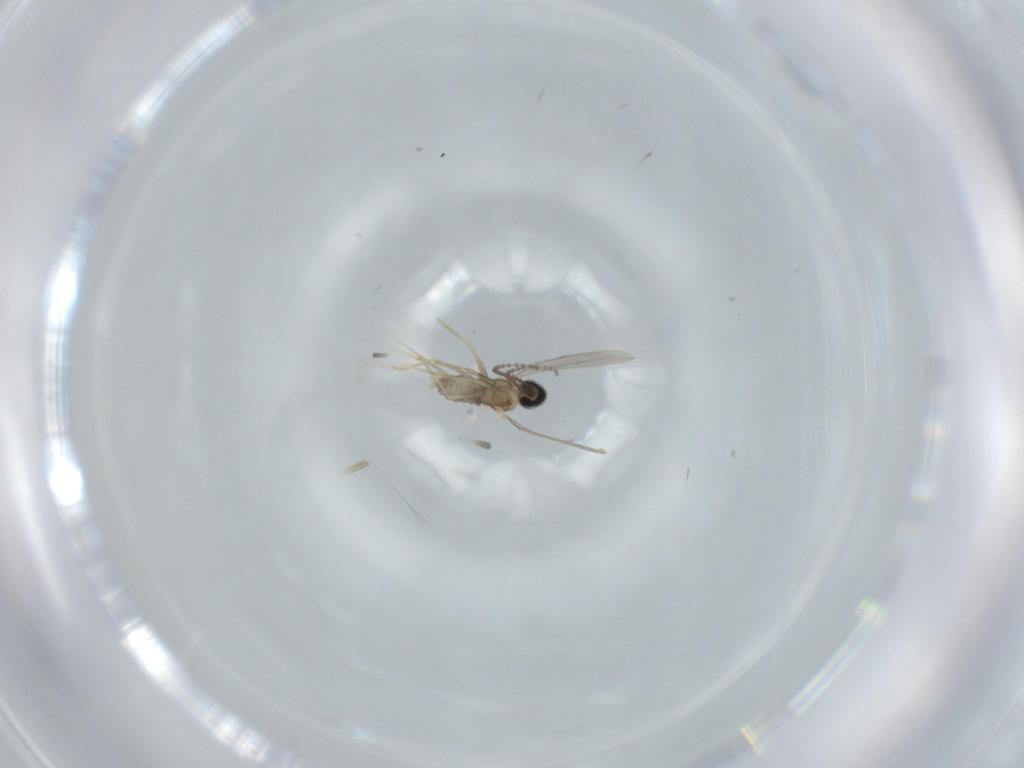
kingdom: Animalia
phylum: Arthropoda
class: Insecta
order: Diptera
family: Cecidomyiidae
